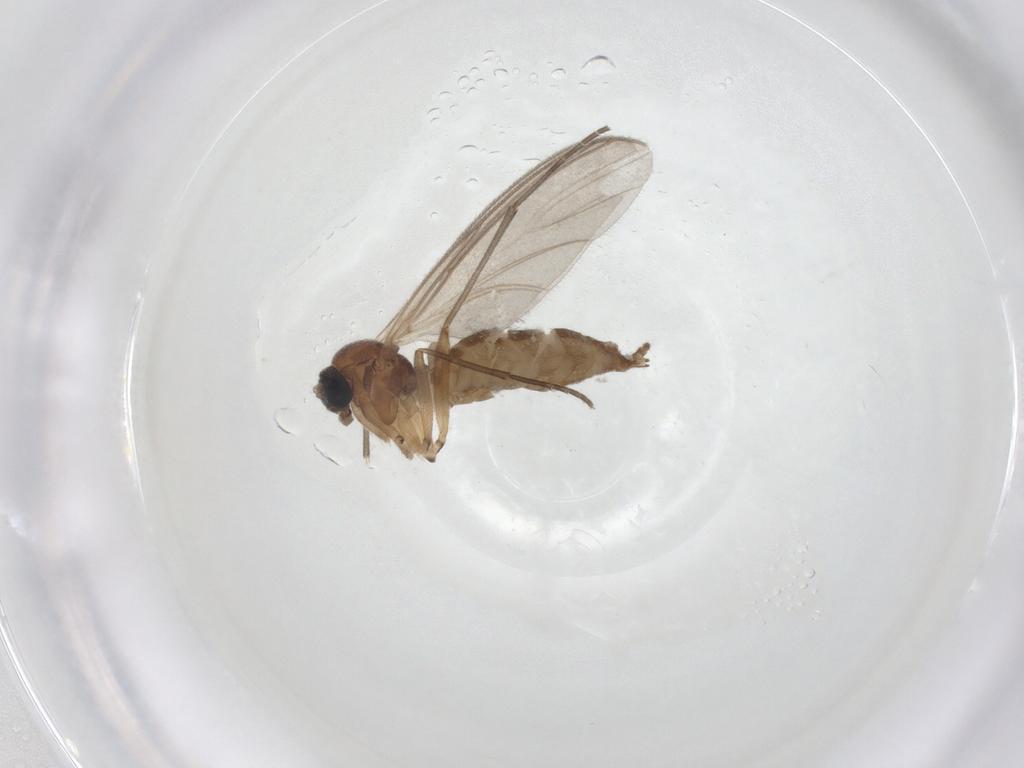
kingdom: Animalia
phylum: Arthropoda
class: Insecta
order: Diptera
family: Sciaridae
